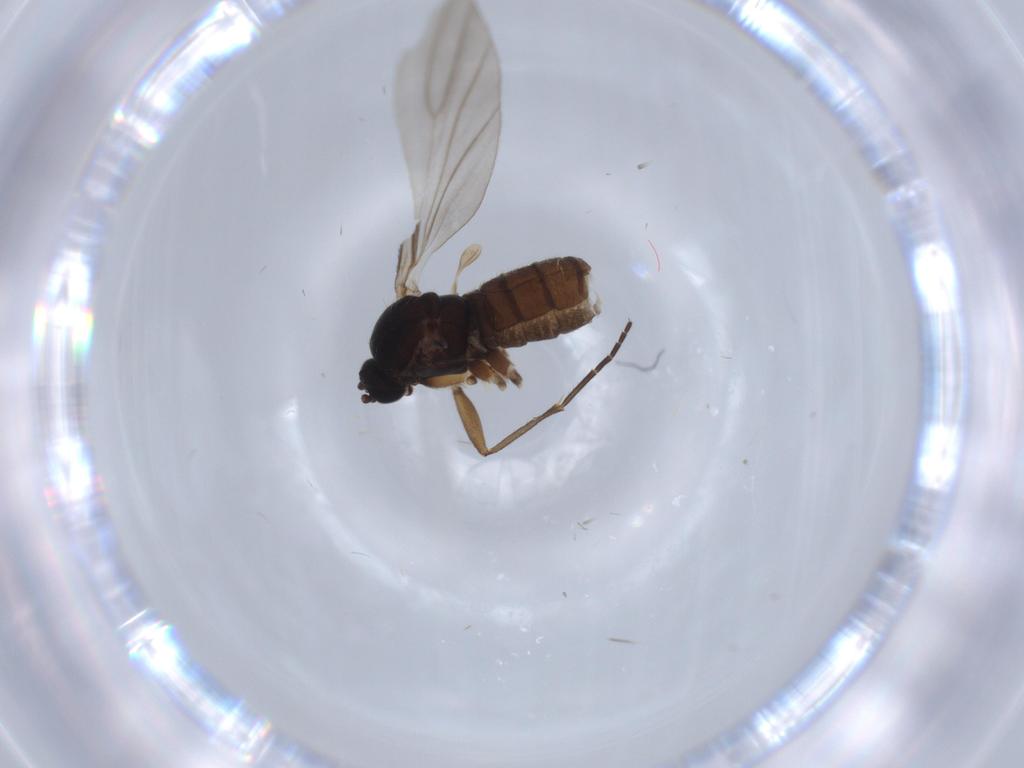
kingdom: Animalia
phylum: Arthropoda
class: Insecta
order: Diptera
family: Sciaridae
